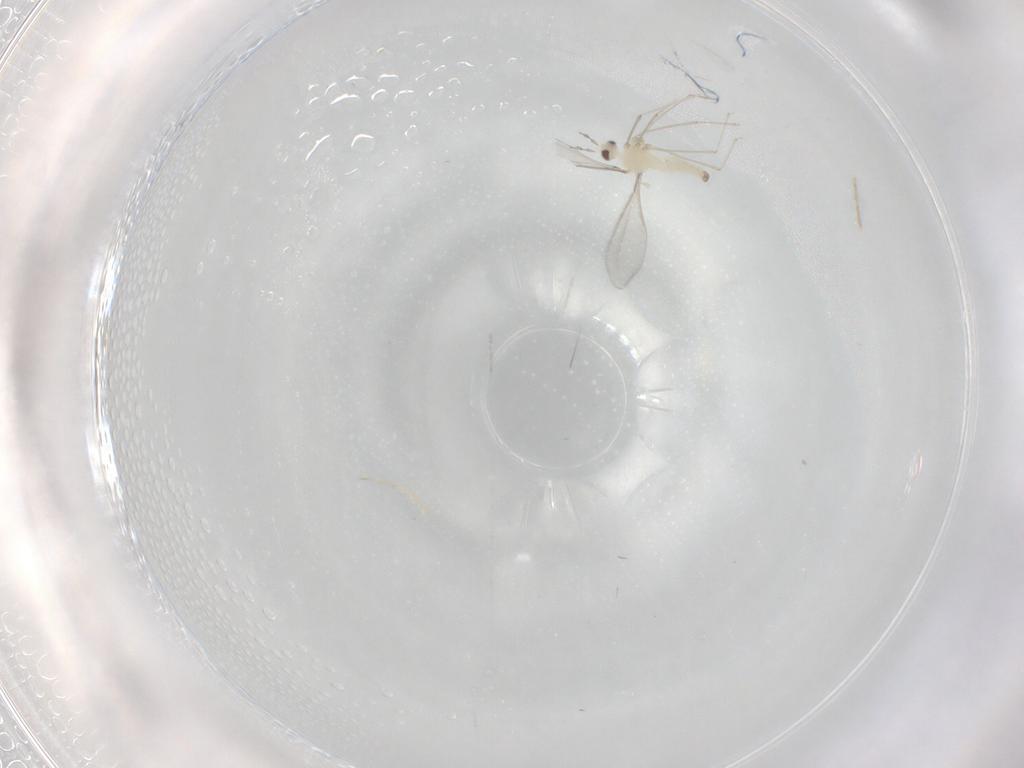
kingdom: Animalia
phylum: Arthropoda
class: Insecta
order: Diptera
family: Chironomidae
